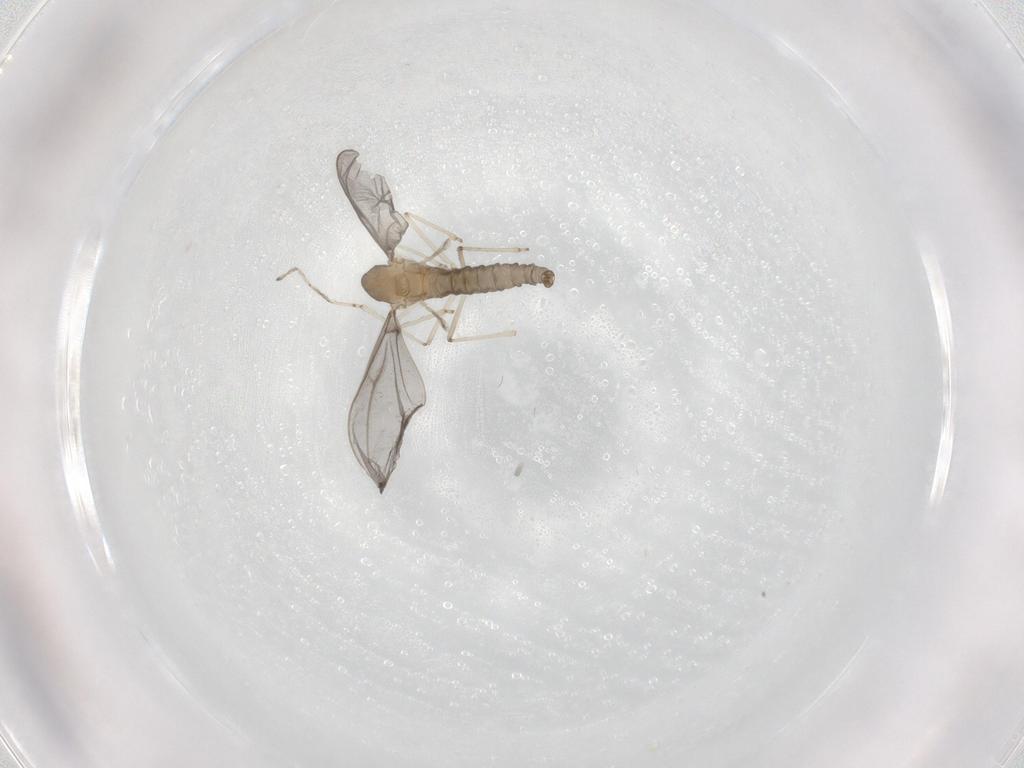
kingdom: Animalia
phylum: Arthropoda
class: Insecta
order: Diptera
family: Cecidomyiidae
